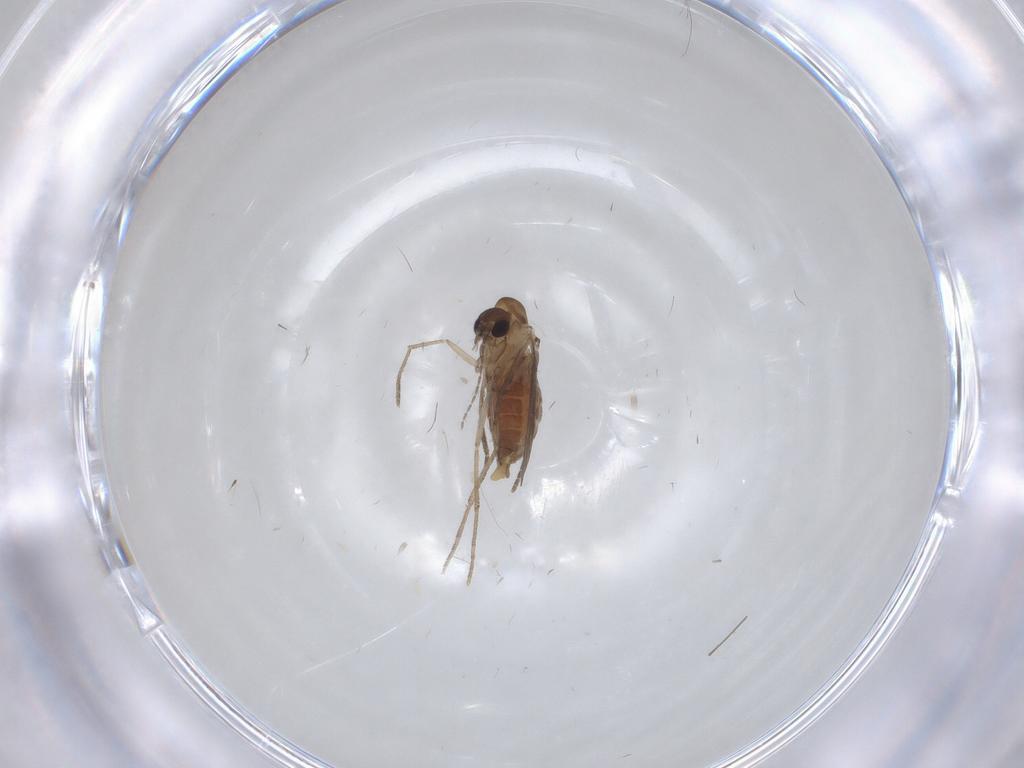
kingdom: Animalia
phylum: Arthropoda
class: Insecta
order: Diptera
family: Chironomidae
